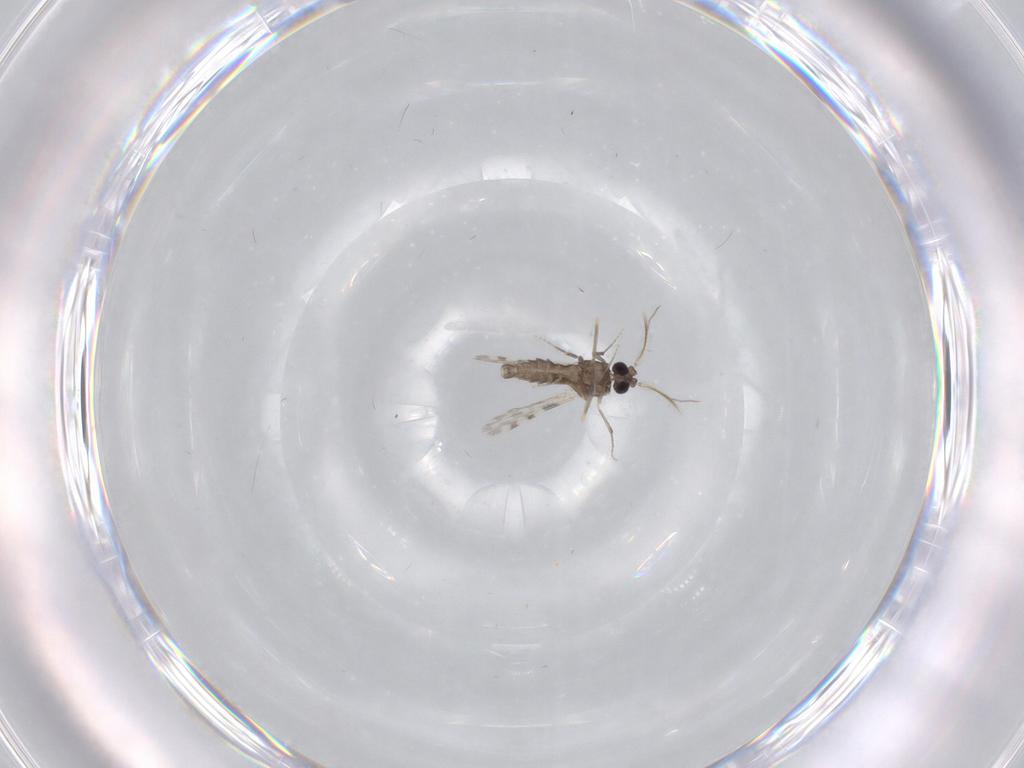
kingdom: Animalia
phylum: Arthropoda
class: Insecta
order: Diptera
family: Ceratopogonidae
